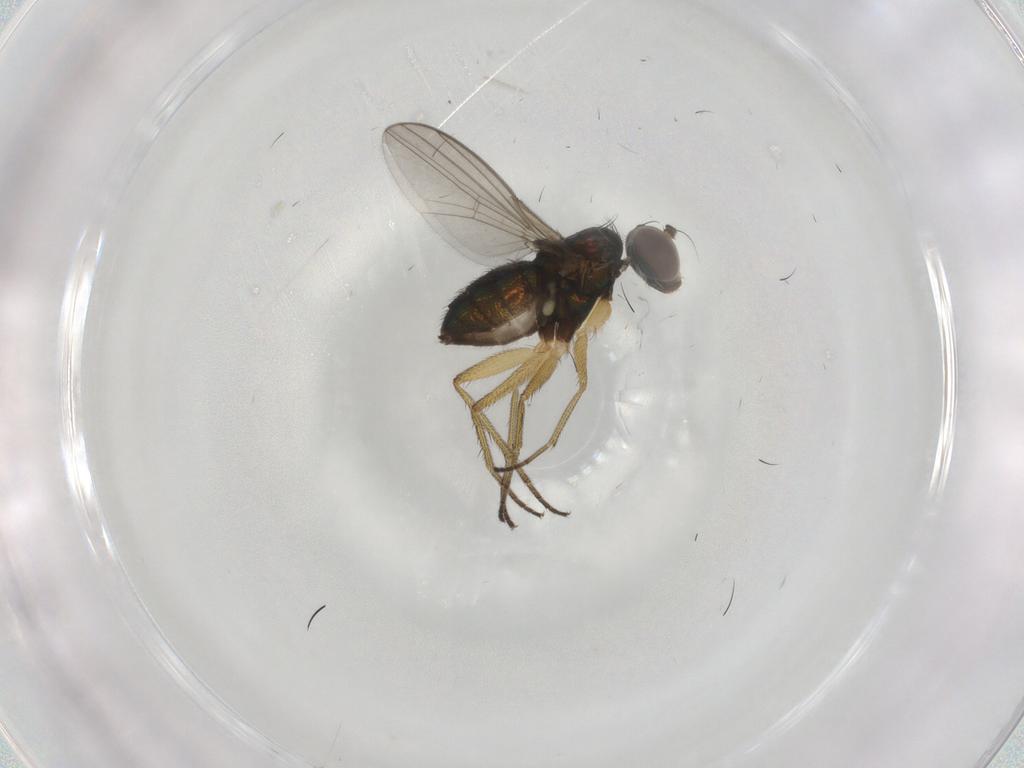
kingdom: Animalia
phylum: Arthropoda
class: Insecta
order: Diptera
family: Dolichopodidae
